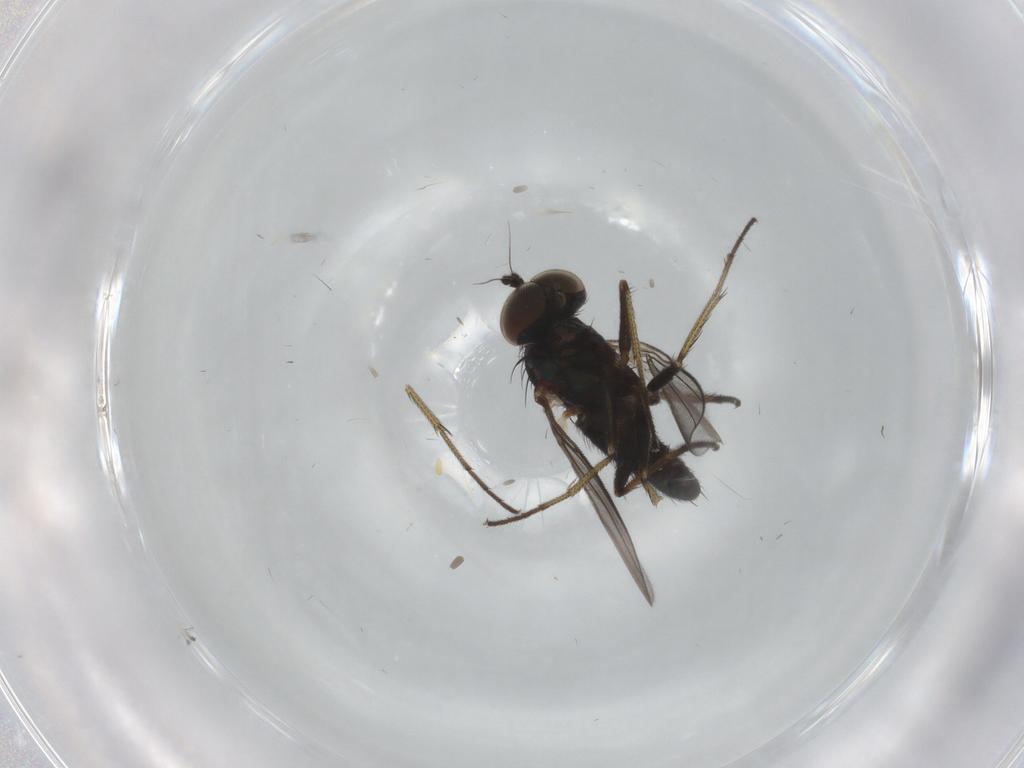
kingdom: Animalia
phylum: Arthropoda
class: Insecta
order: Diptera
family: Dolichopodidae
